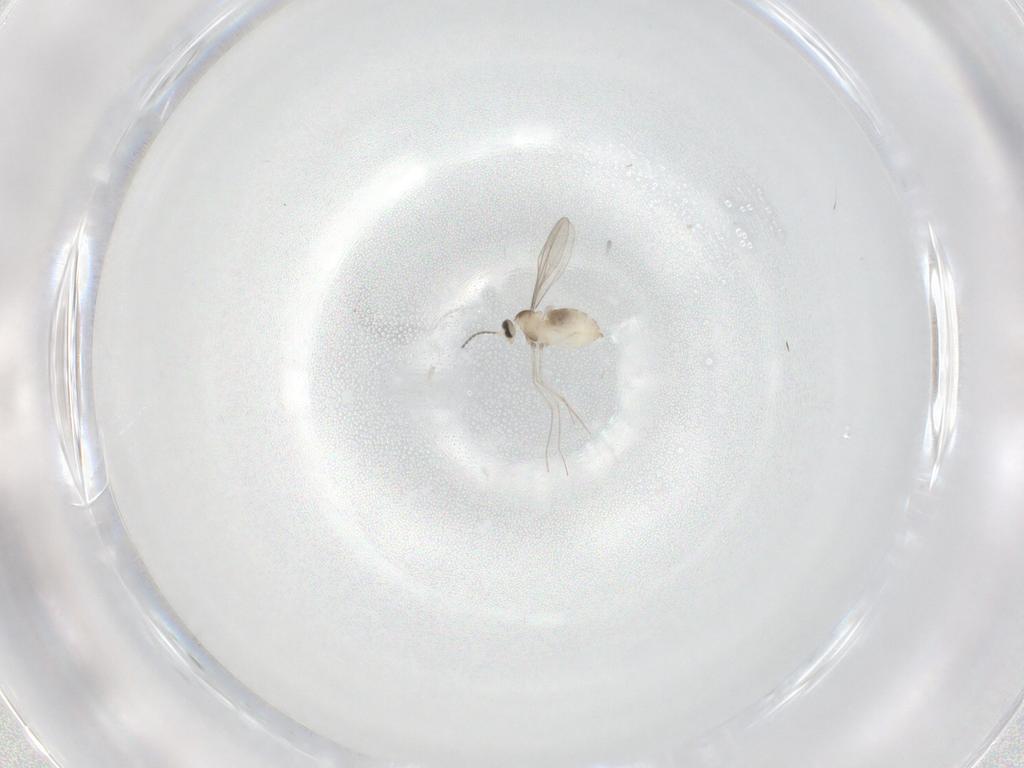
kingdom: Animalia
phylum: Arthropoda
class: Insecta
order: Diptera
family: Cecidomyiidae
